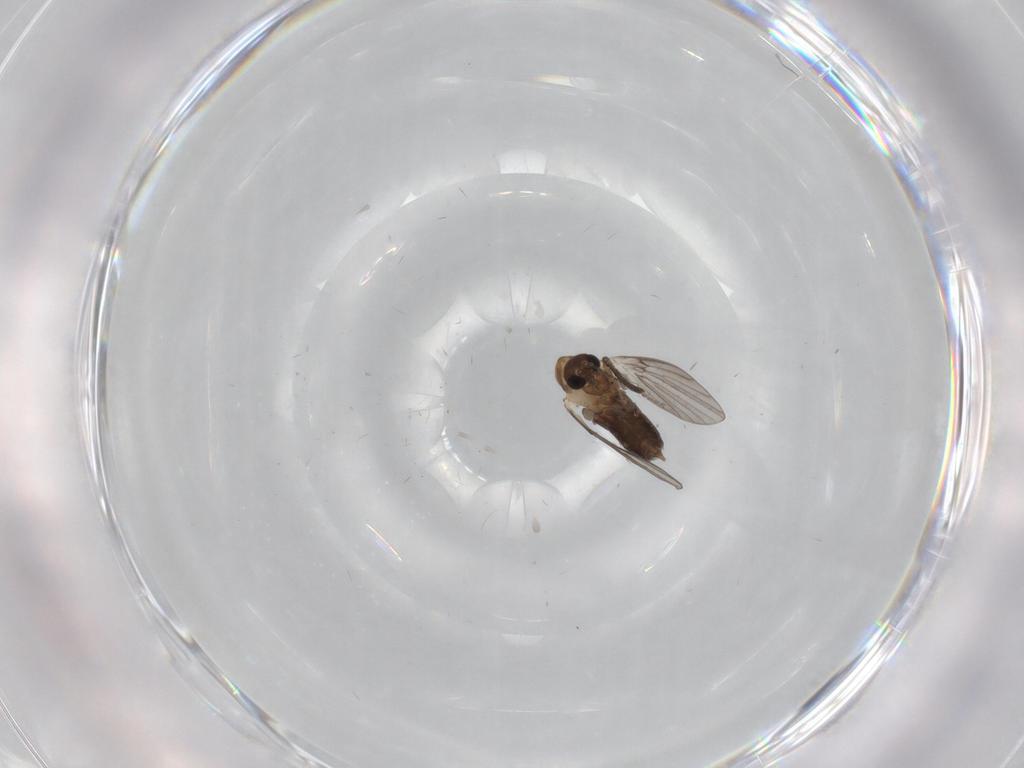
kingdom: Animalia
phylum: Arthropoda
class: Insecta
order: Diptera
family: Psychodidae
